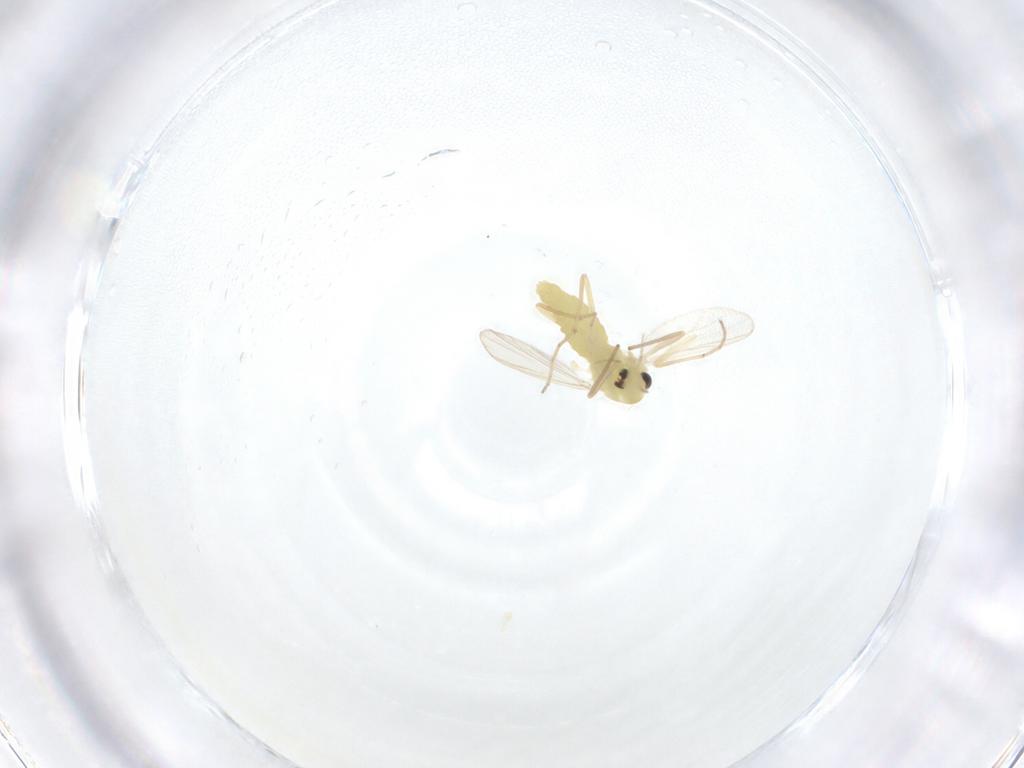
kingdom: Animalia
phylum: Arthropoda
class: Insecta
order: Diptera
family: Chironomidae
